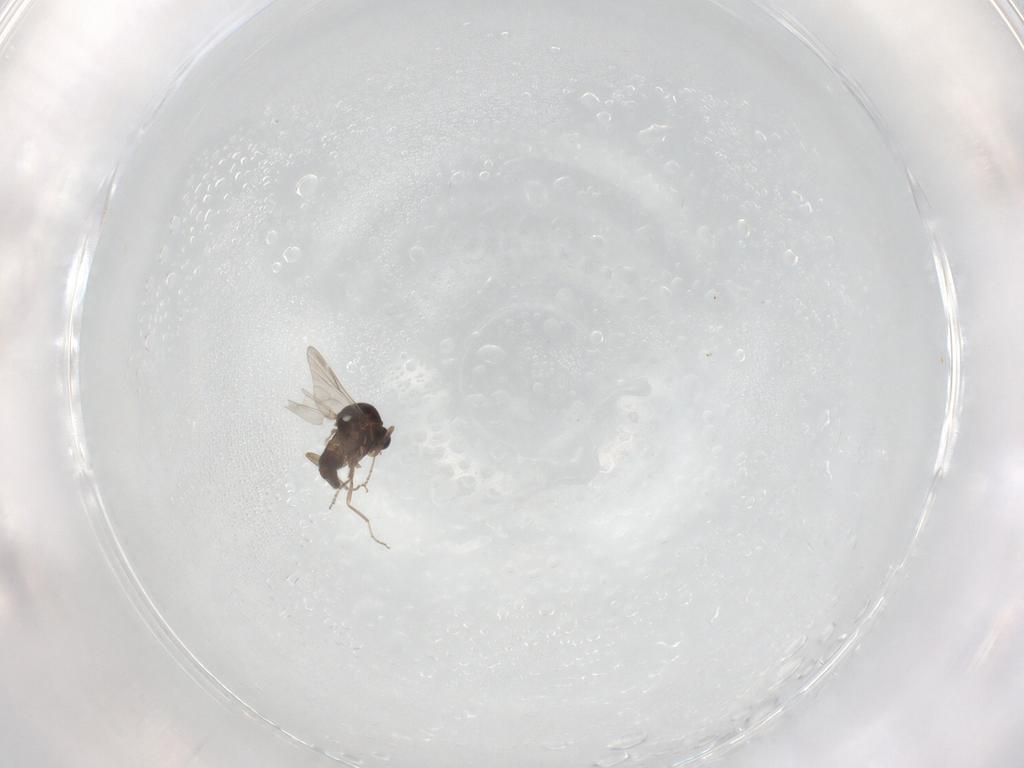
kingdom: Animalia
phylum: Arthropoda
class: Insecta
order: Diptera
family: Ceratopogonidae
